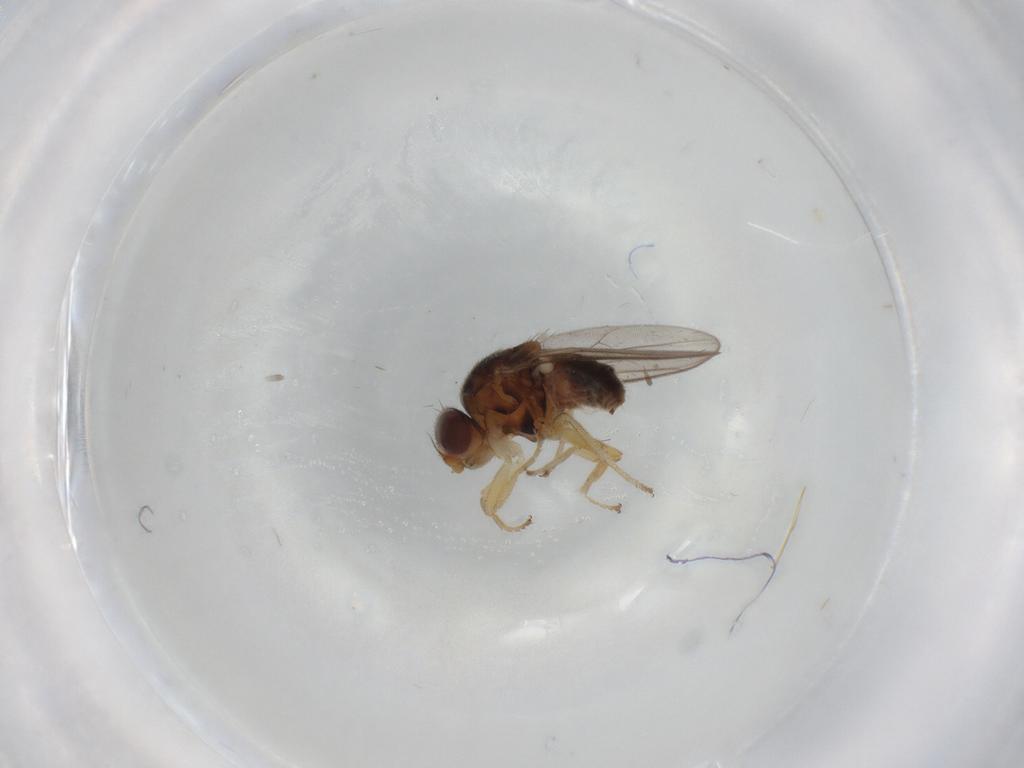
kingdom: Animalia
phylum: Arthropoda
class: Insecta
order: Diptera
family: Chloropidae
